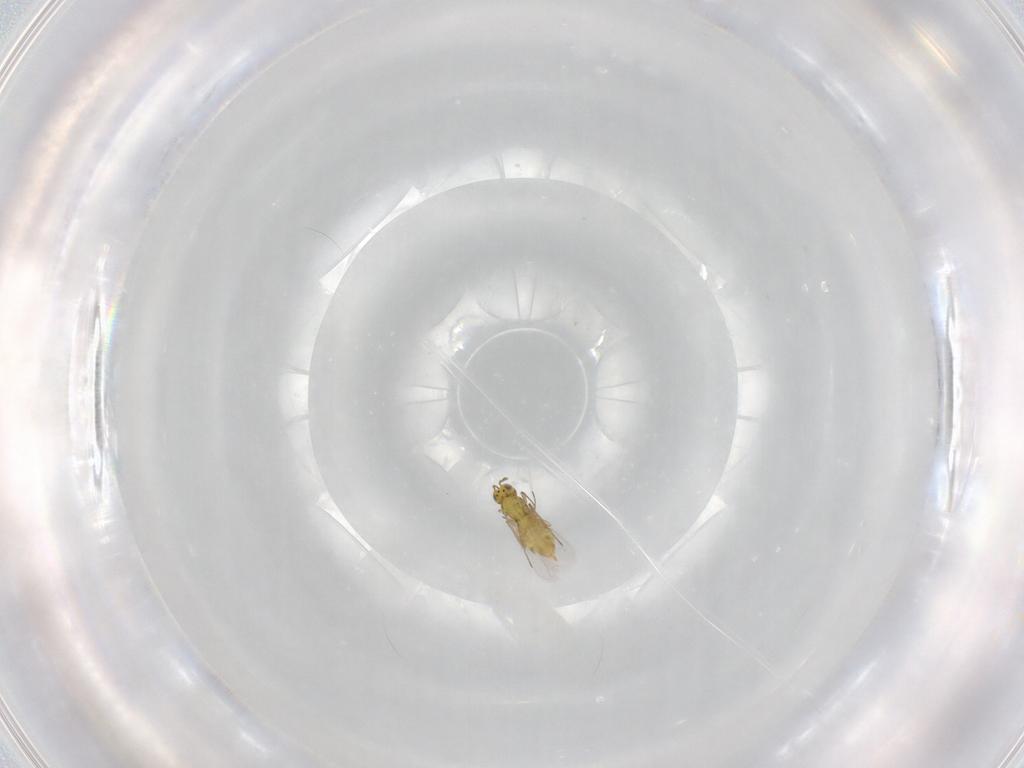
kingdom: Animalia
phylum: Arthropoda
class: Insecta
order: Hymenoptera
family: Aphelinidae
